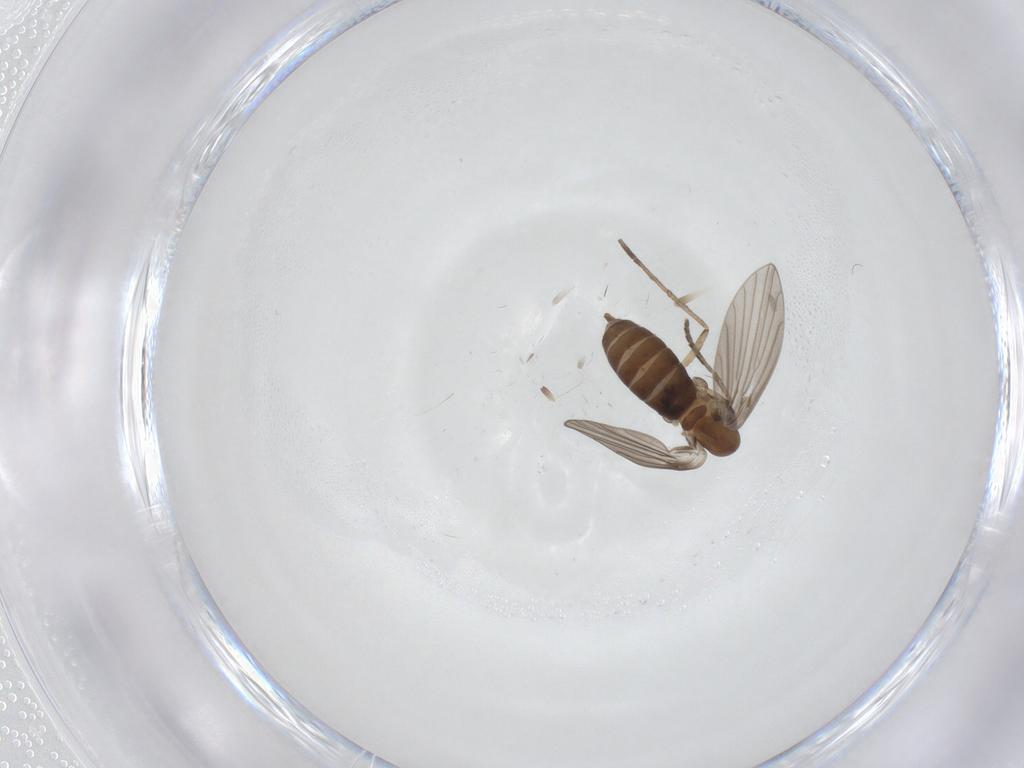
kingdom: Animalia
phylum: Arthropoda
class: Insecta
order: Diptera
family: Psychodidae
